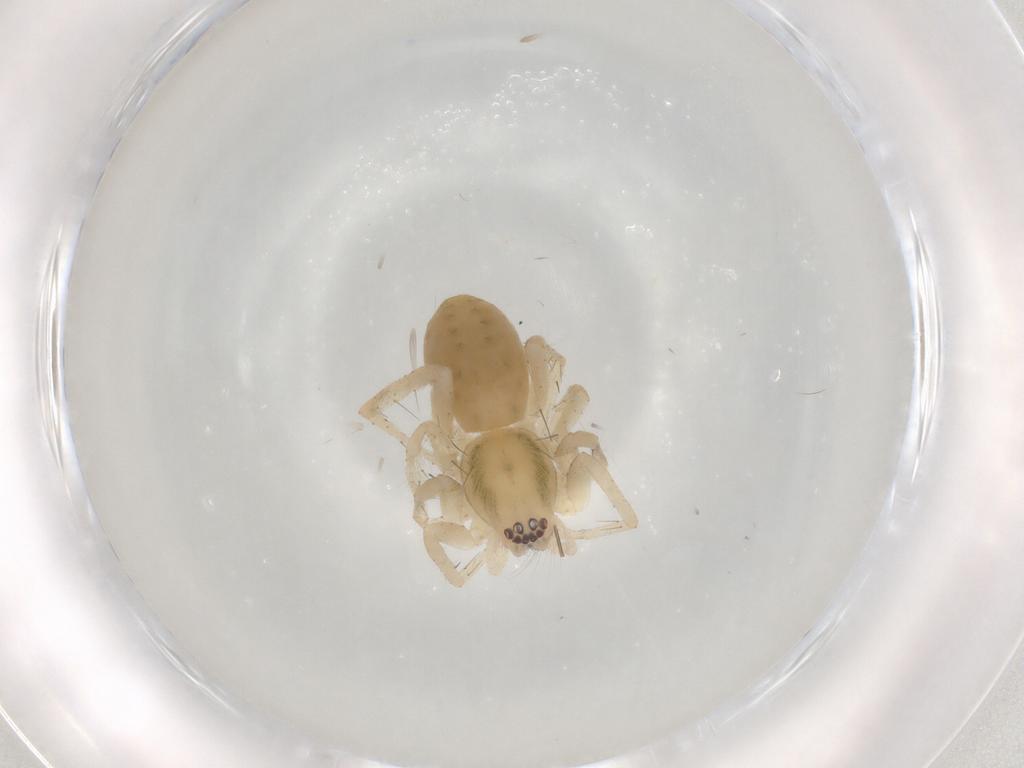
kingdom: Animalia
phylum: Arthropoda
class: Arachnida
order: Araneae
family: Anyphaenidae
